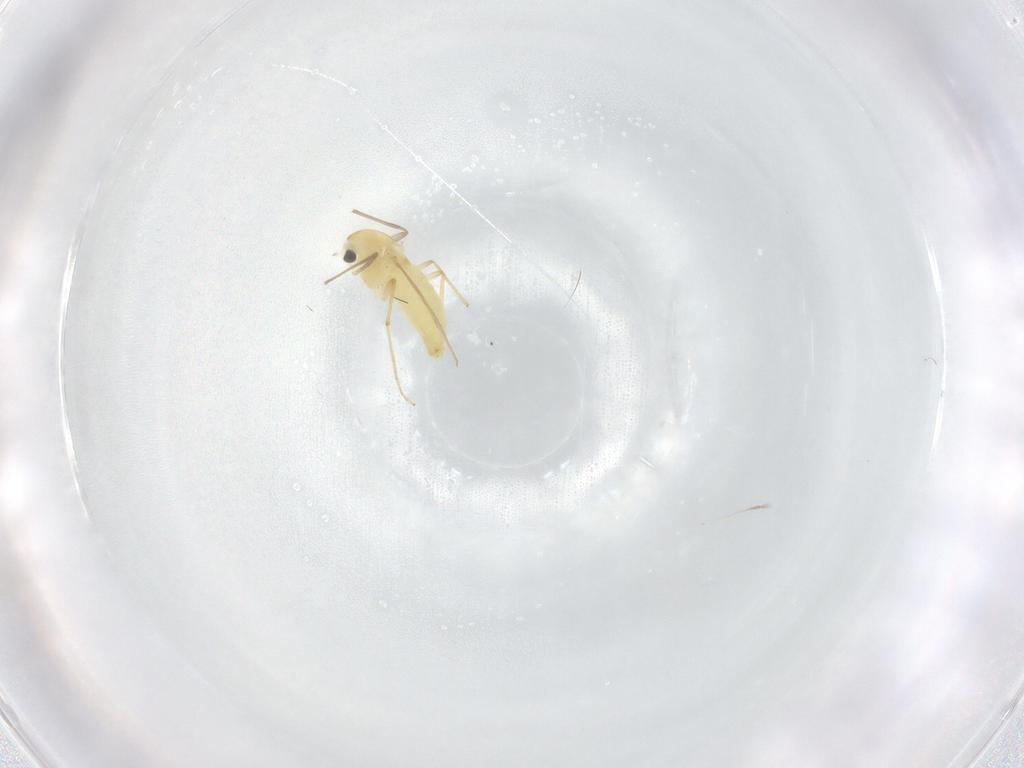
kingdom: Animalia
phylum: Arthropoda
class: Insecta
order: Diptera
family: Chironomidae
